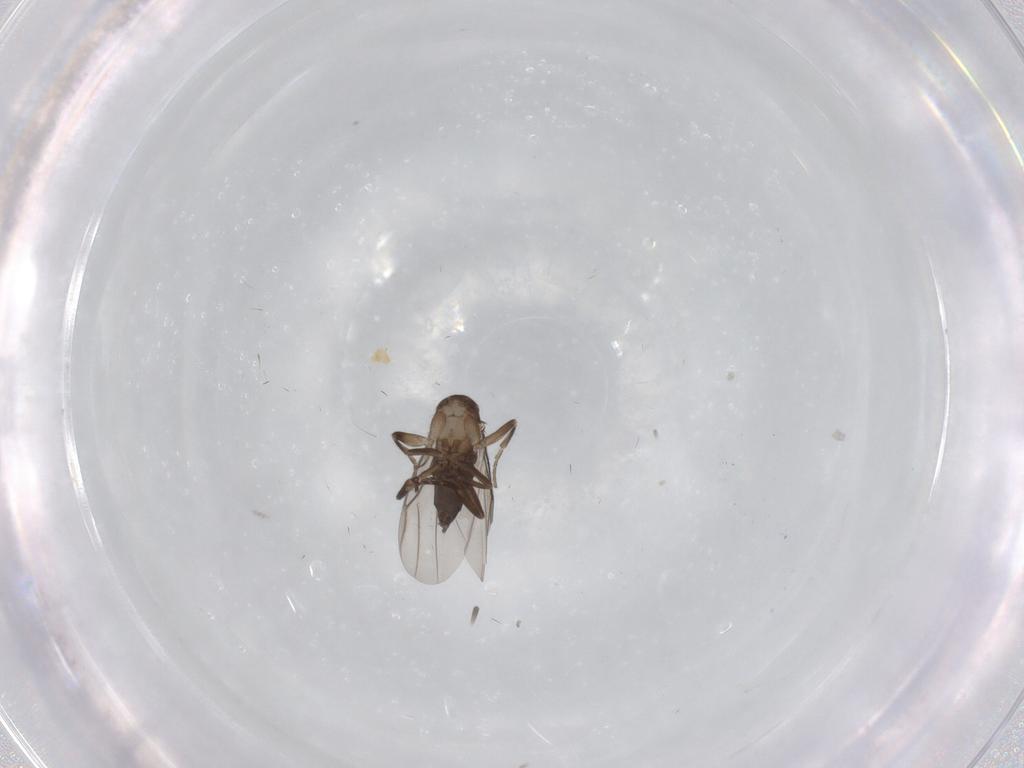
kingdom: Animalia
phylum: Arthropoda
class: Insecta
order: Diptera
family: Phoridae
